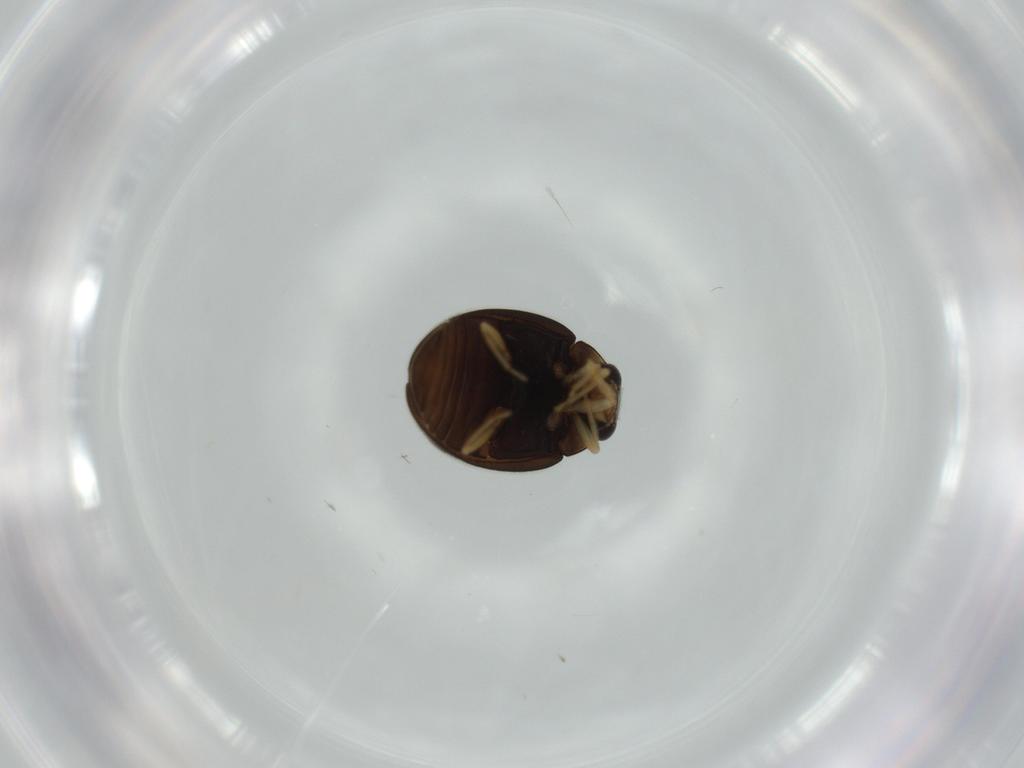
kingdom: Animalia
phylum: Arthropoda
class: Insecta
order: Coleoptera
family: Coccinellidae
